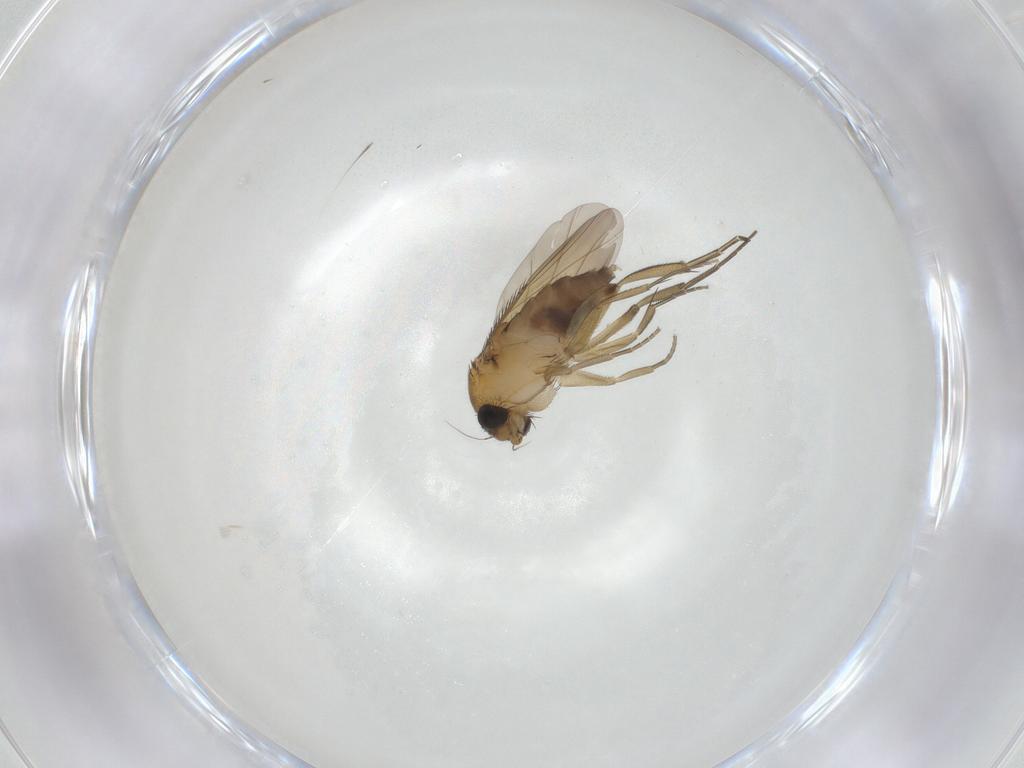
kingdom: Animalia
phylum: Arthropoda
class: Insecta
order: Diptera
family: Phoridae
